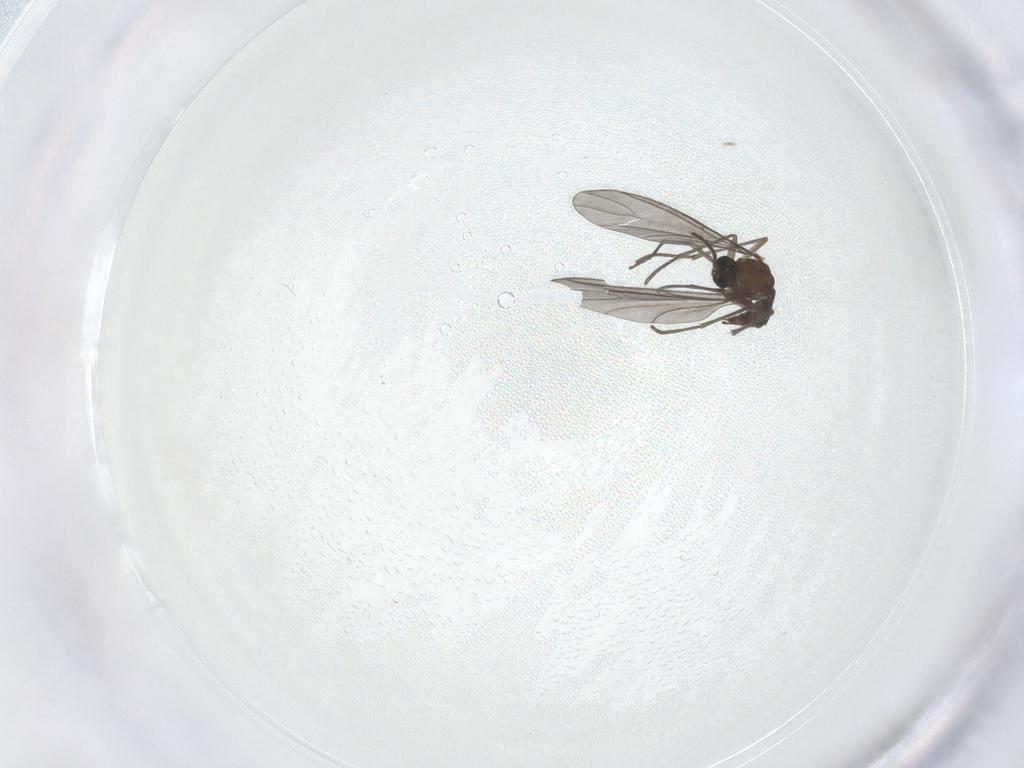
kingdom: Animalia
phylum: Arthropoda
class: Insecta
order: Diptera
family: Sciaridae
